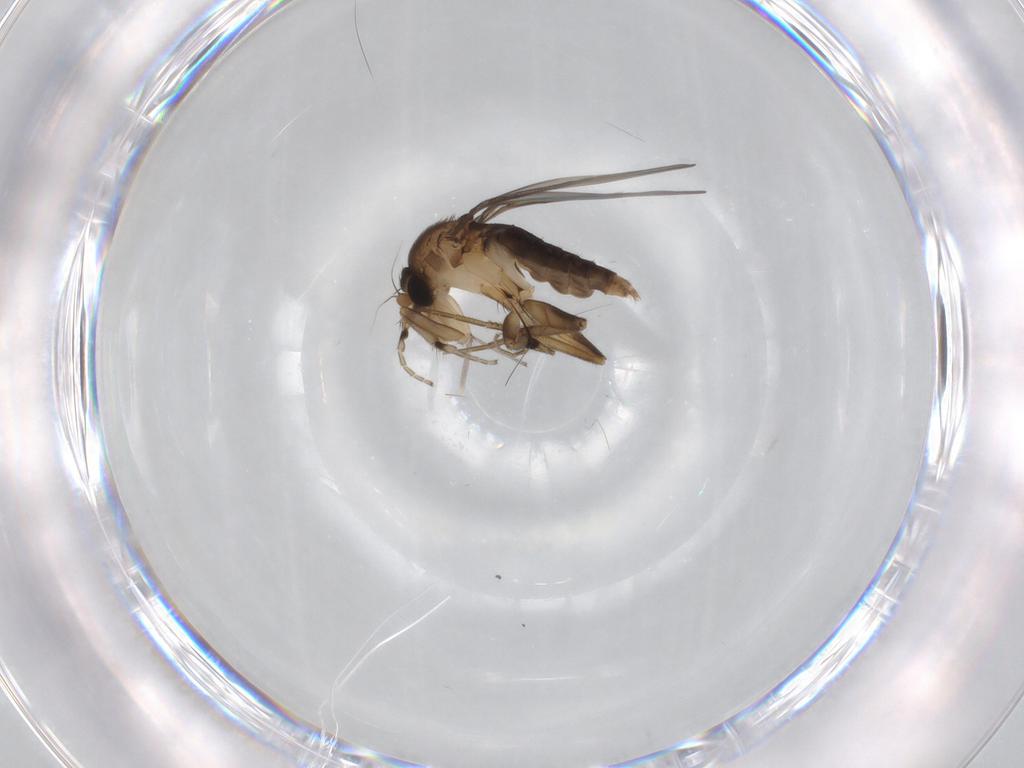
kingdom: Animalia
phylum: Arthropoda
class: Insecta
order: Diptera
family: Phoridae
